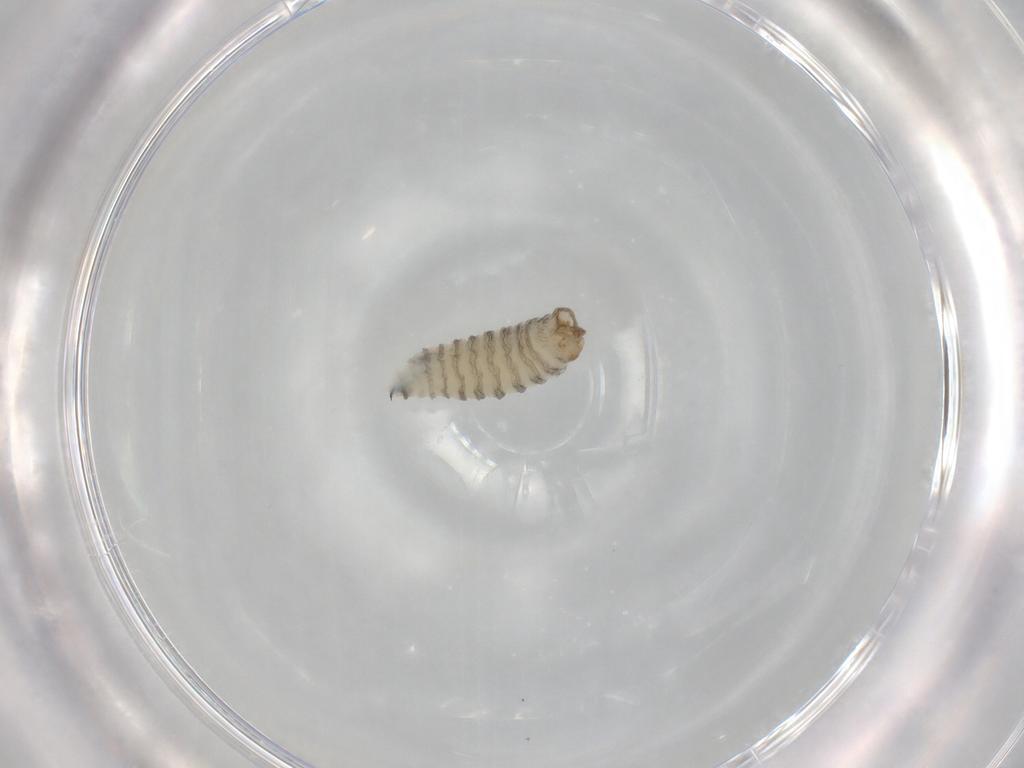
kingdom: Animalia
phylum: Arthropoda
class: Insecta
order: Diptera
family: Sarcophagidae
